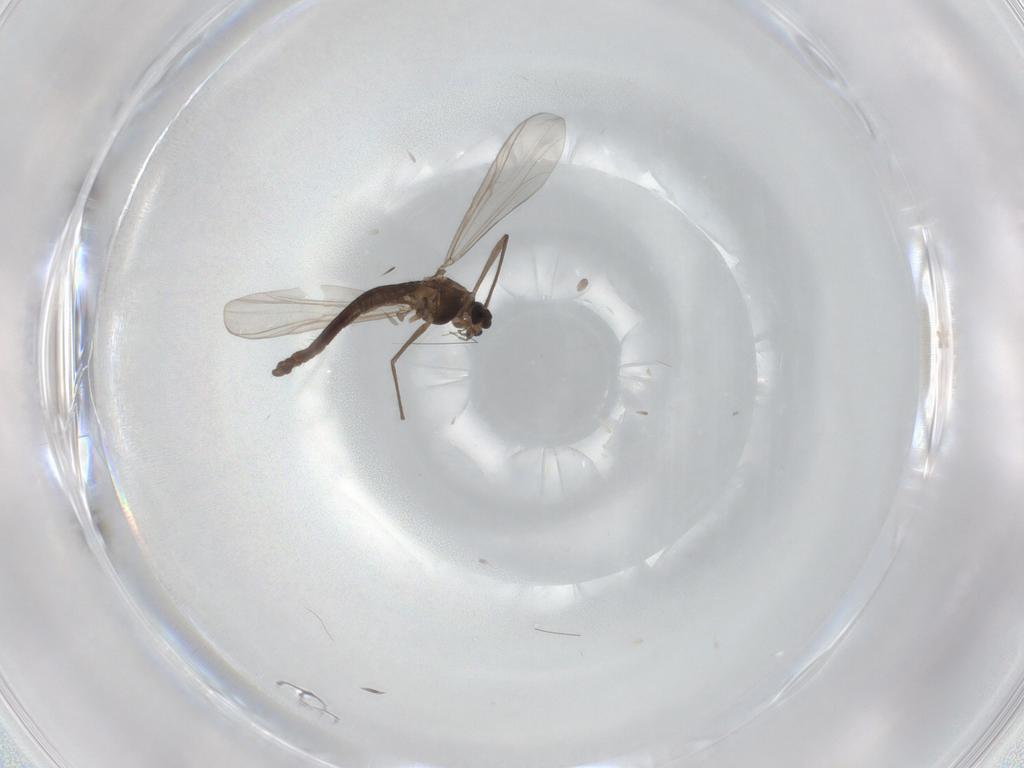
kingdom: Animalia
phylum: Arthropoda
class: Insecta
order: Diptera
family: Chironomidae
